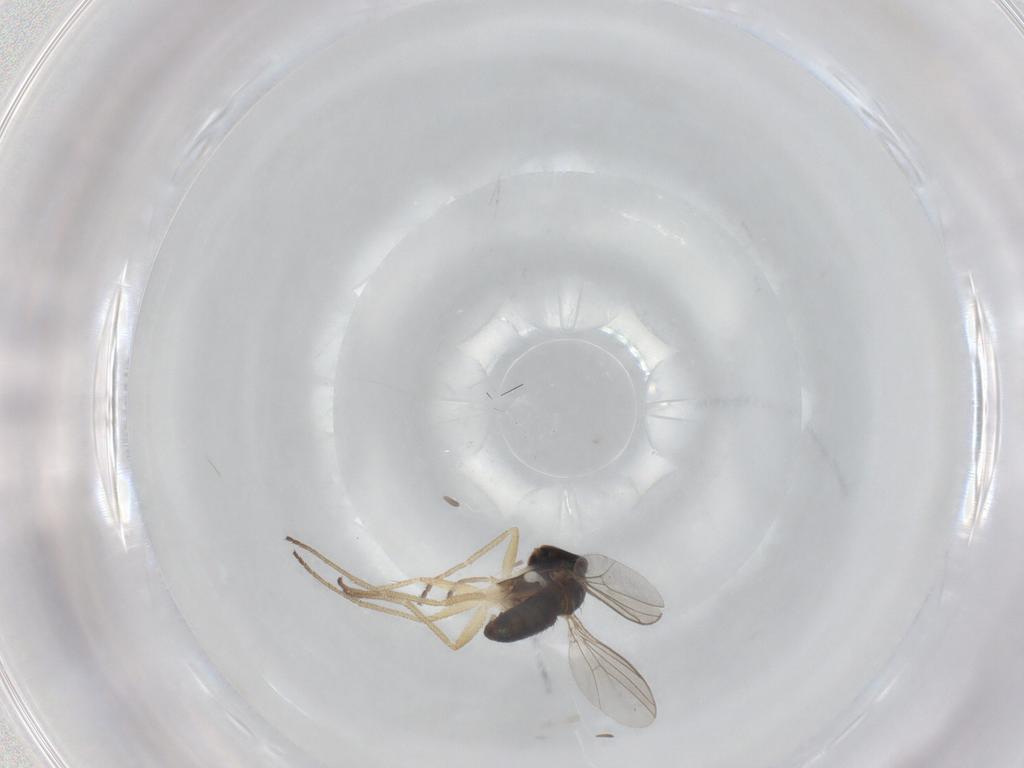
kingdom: Animalia
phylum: Arthropoda
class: Insecta
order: Diptera
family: Dolichopodidae
